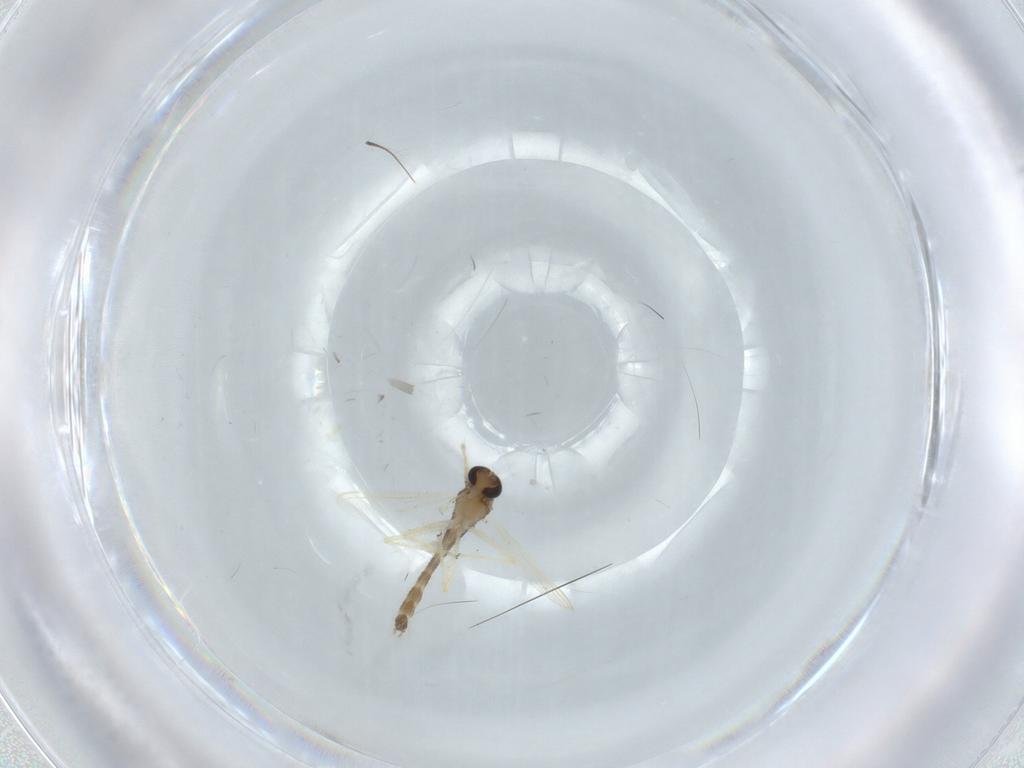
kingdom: Animalia
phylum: Arthropoda
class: Insecta
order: Diptera
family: Chironomidae
